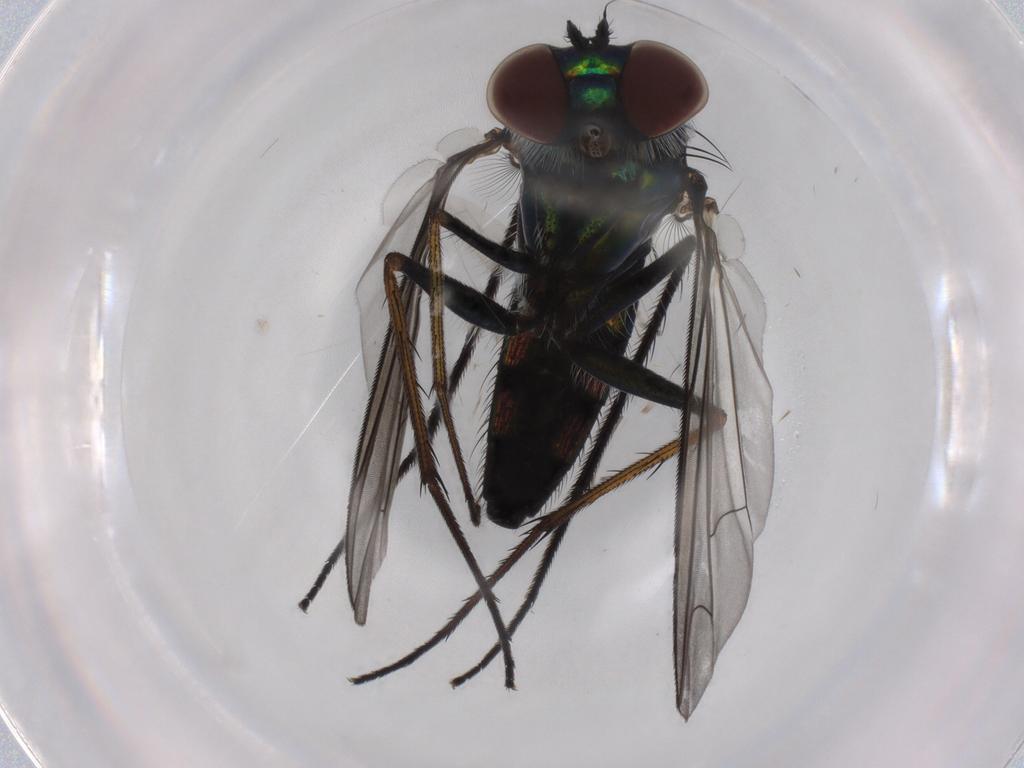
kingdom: Animalia
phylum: Arthropoda
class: Insecta
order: Diptera
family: Dolichopodidae
